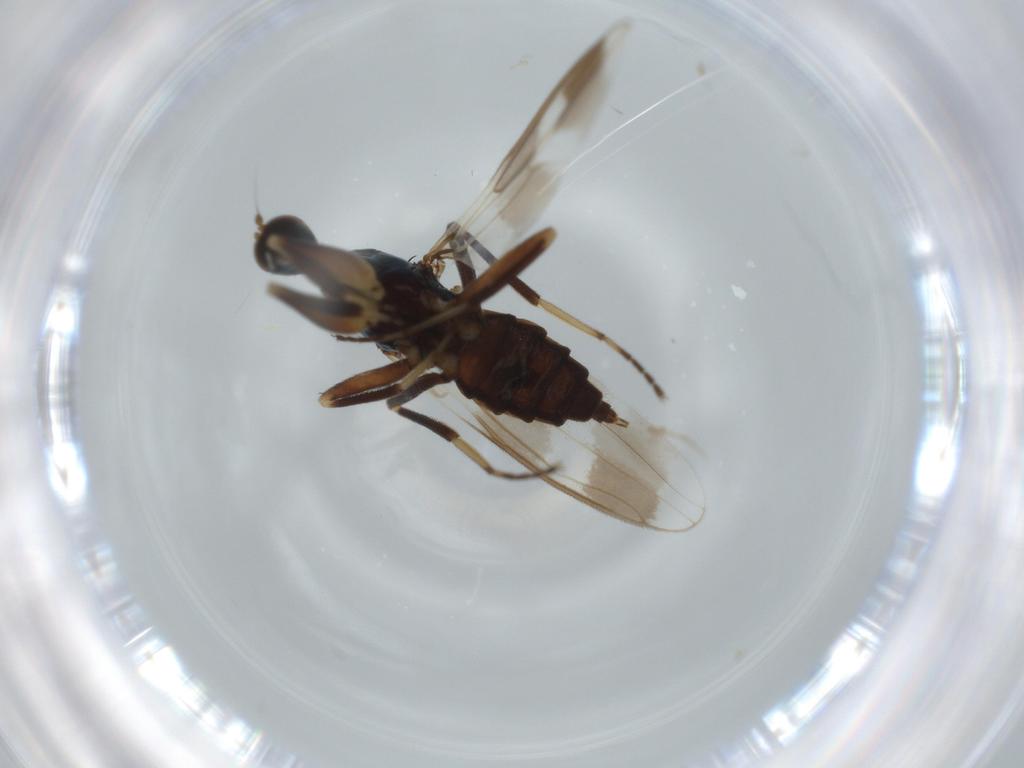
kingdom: Animalia
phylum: Arthropoda
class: Insecta
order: Diptera
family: Hybotidae
